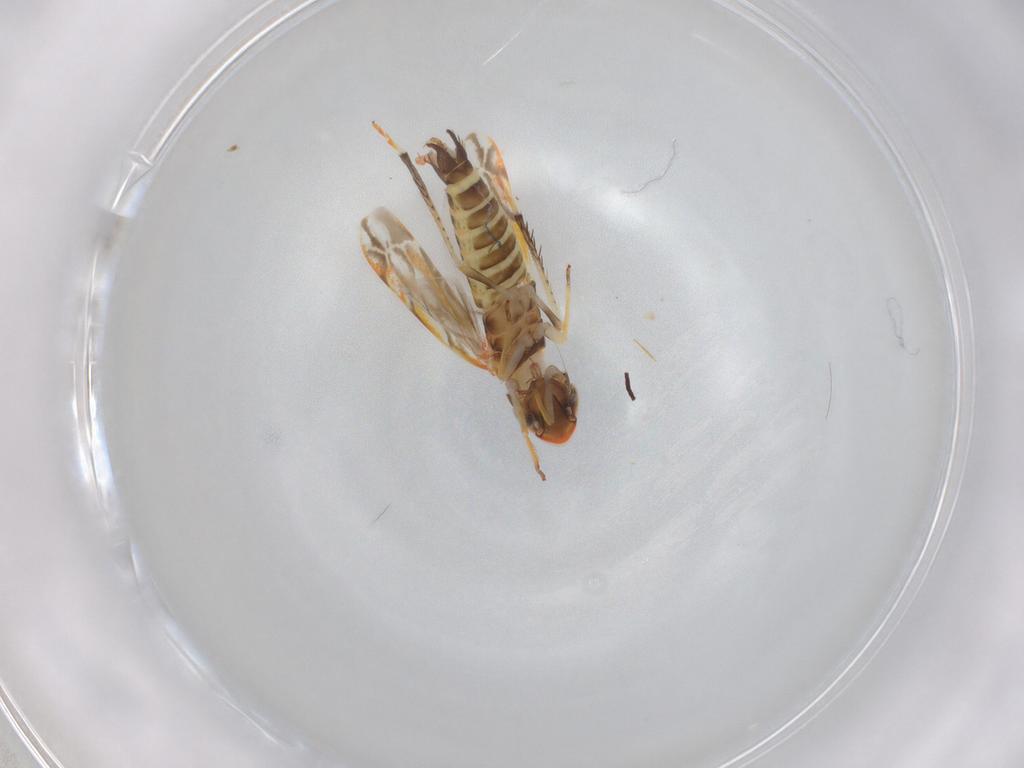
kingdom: Animalia
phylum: Arthropoda
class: Insecta
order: Hemiptera
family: Cicadellidae
